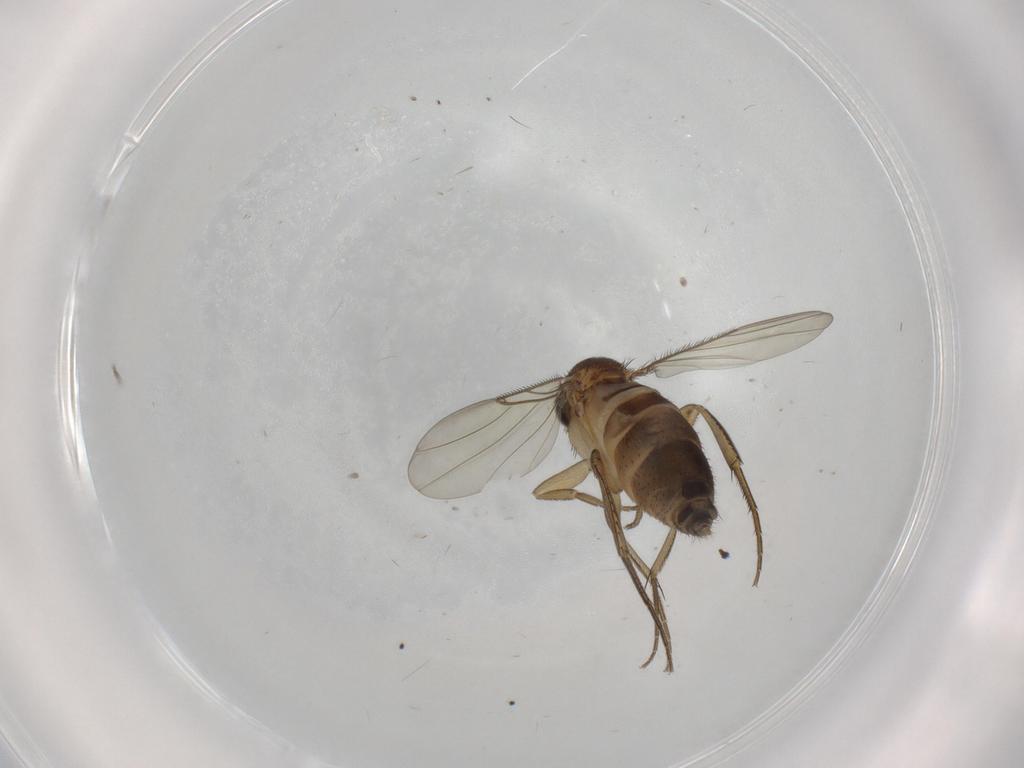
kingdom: Animalia
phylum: Arthropoda
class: Insecta
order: Diptera
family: Phoridae
